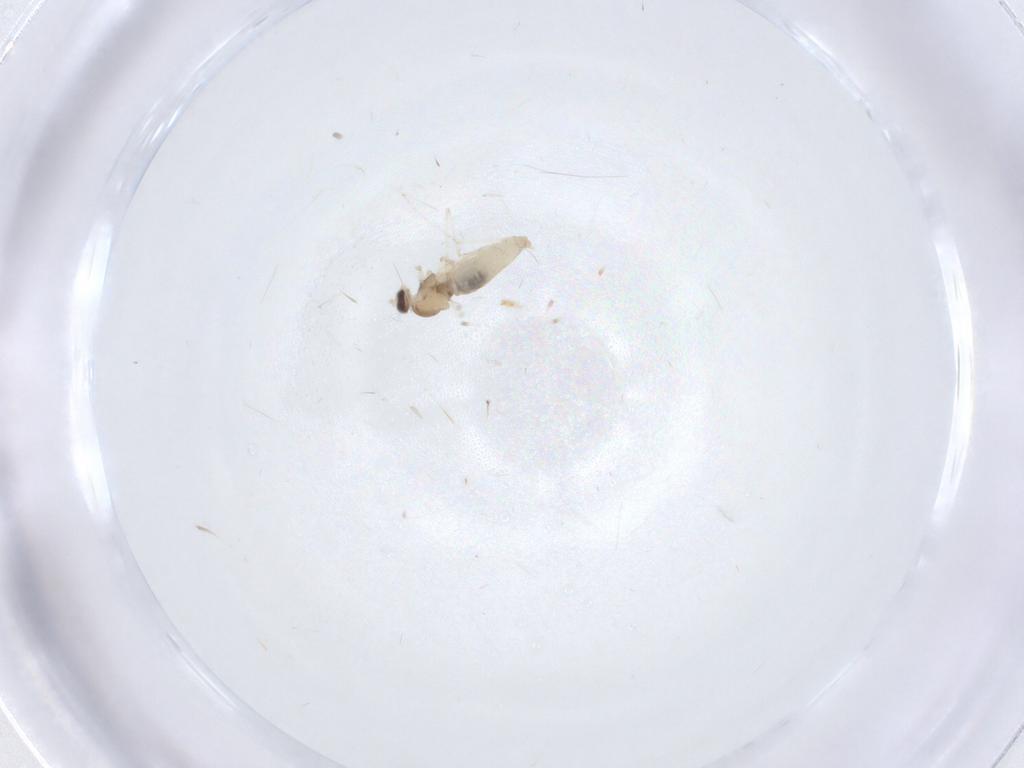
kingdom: Animalia
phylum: Arthropoda
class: Insecta
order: Diptera
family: Cecidomyiidae
